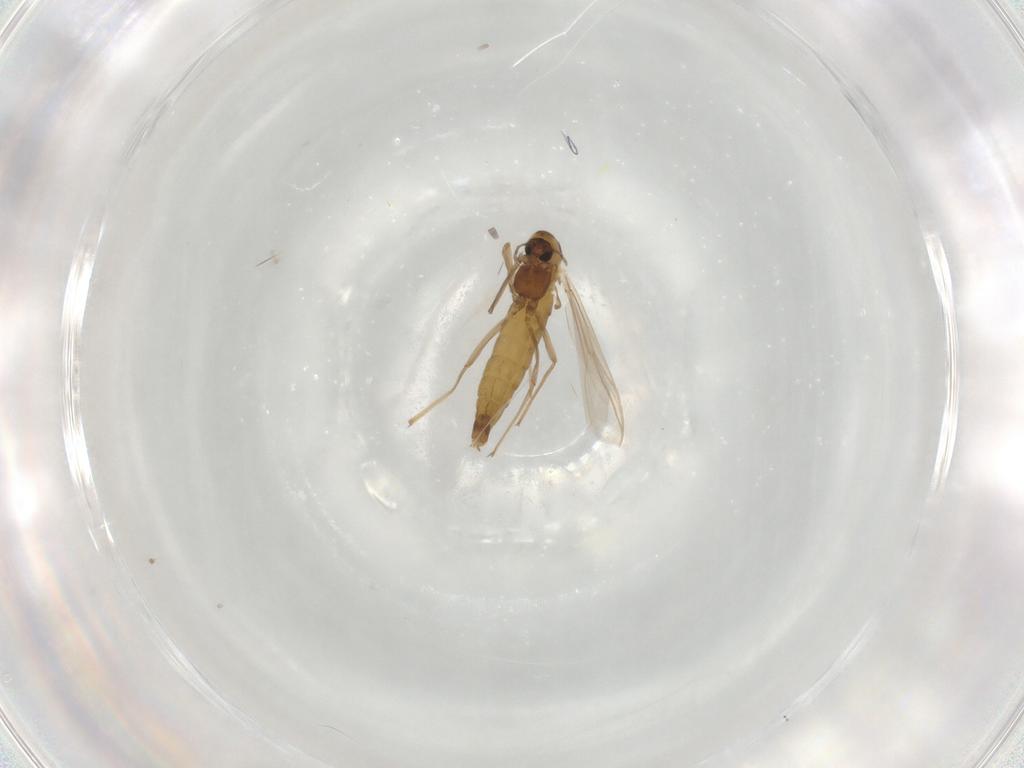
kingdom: Animalia
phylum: Arthropoda
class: Insecta
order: Diptera
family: Chironomidae
